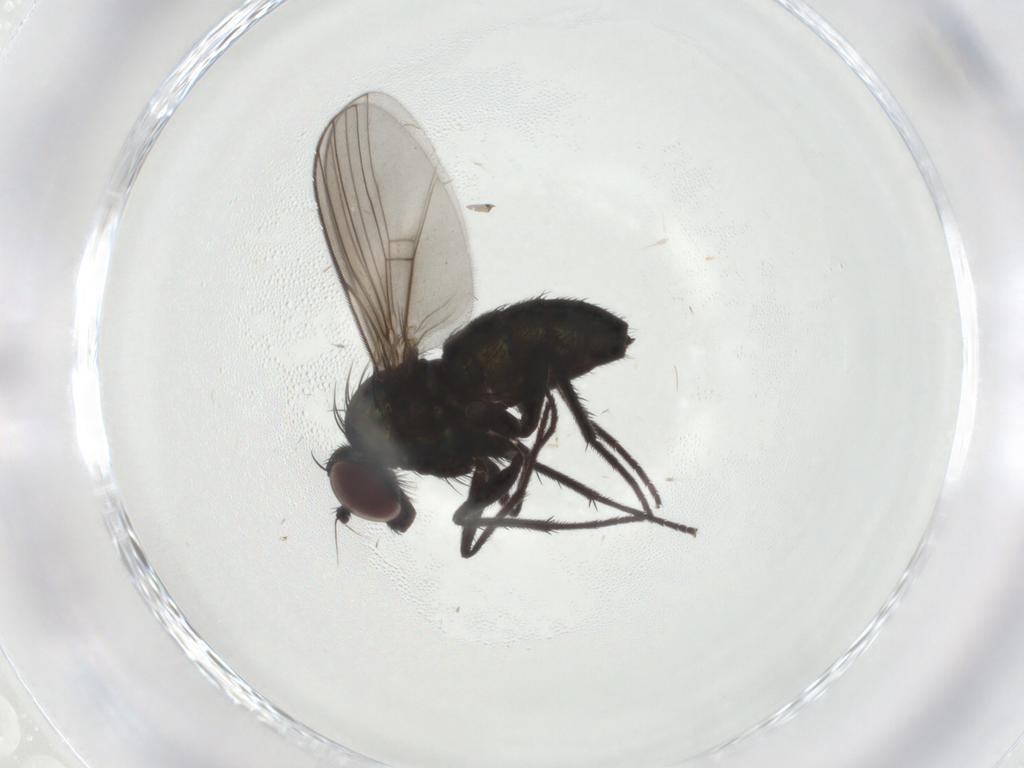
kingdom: Animalia
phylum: Arthropoda
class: Insecta
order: Diptera
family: Dolichopodidae
